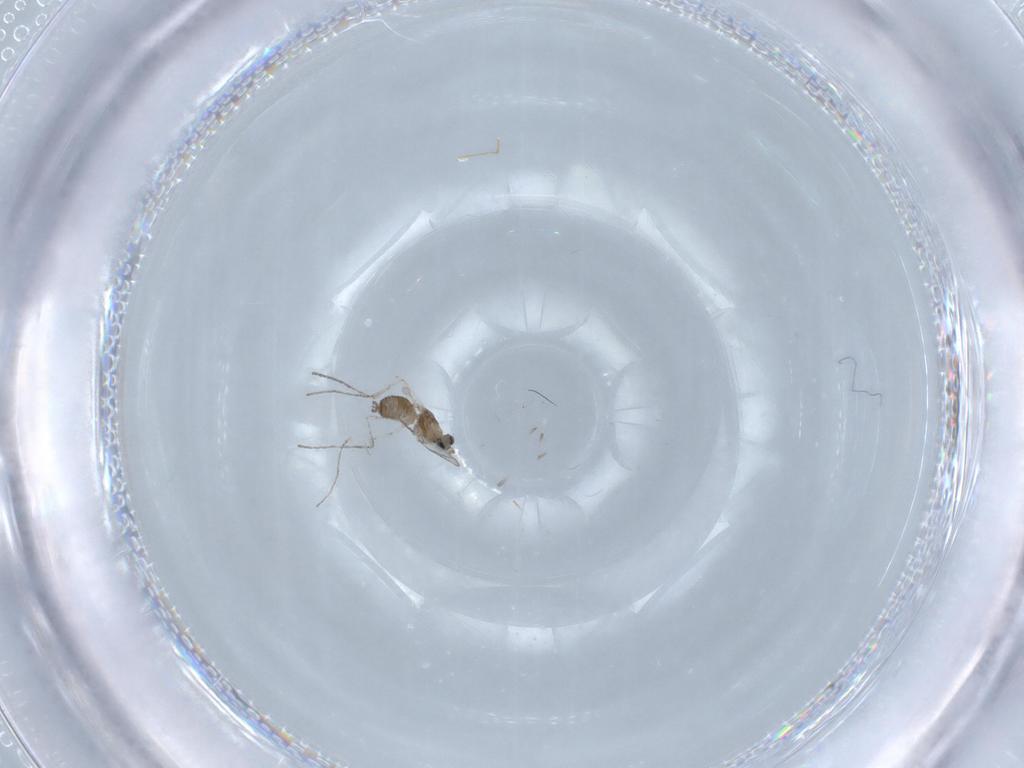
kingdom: Animalia
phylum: Arthropoda
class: Insecta
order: Diptera
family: Cecidomyiidae
